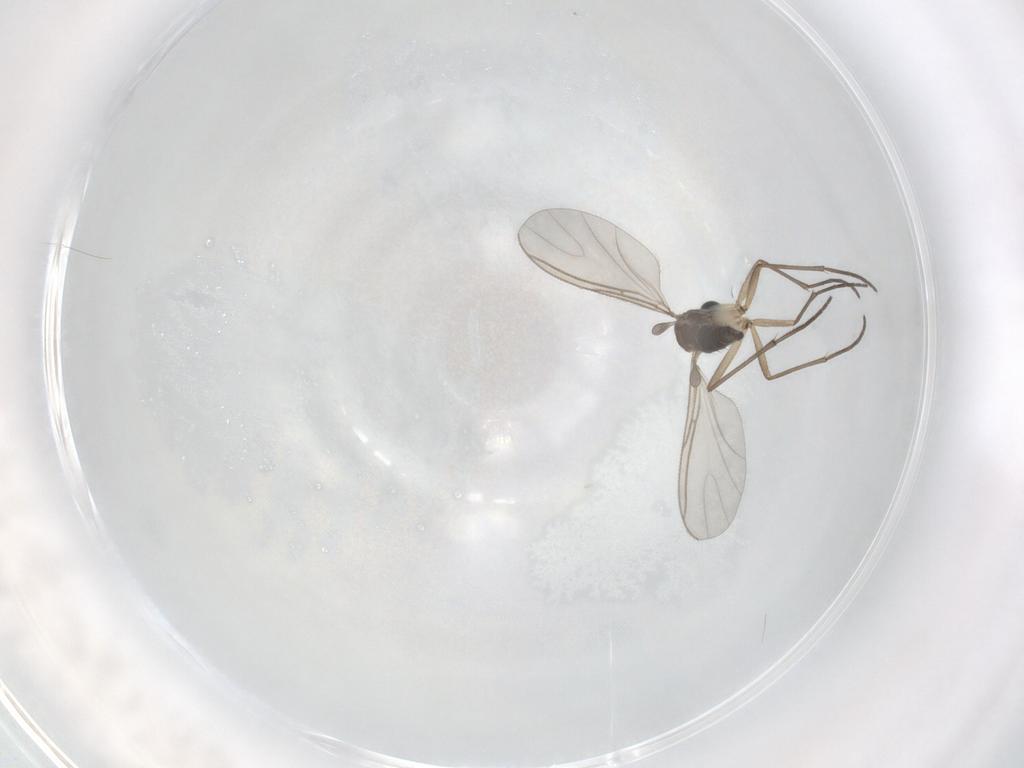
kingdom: Animalia
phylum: Arthropoda
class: Insecta
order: Diptera
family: Sciaridae
